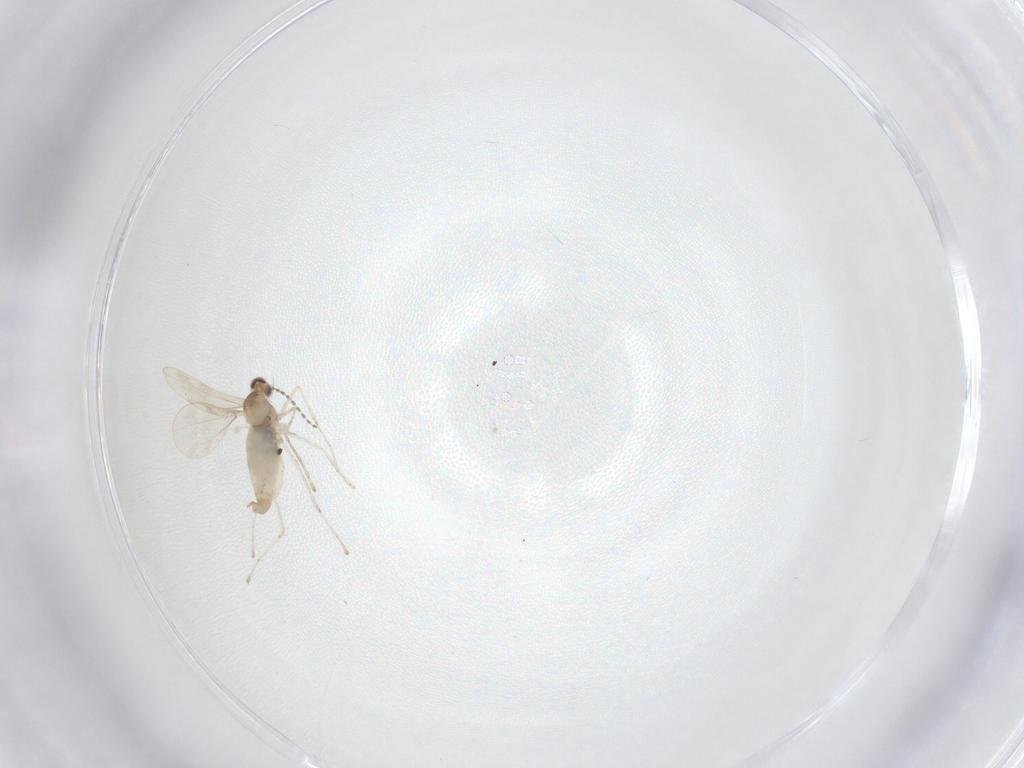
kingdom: Animalia
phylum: Arthropoda
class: Insecta
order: Diptera
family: Cecidomyiidae
